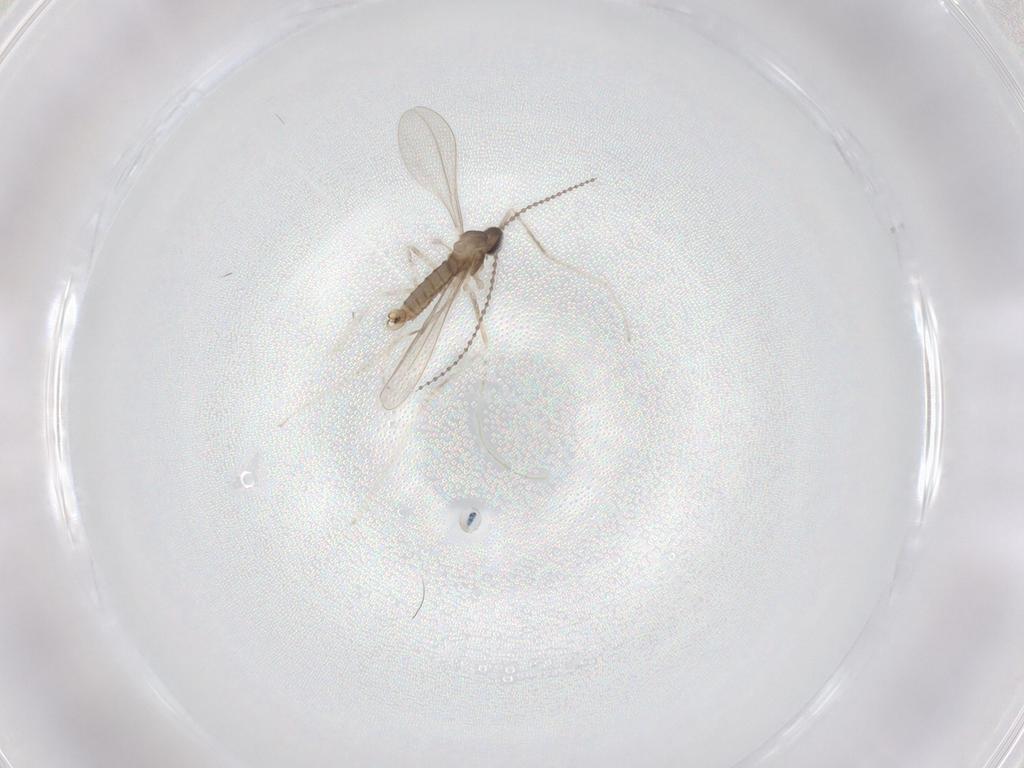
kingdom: Animalia
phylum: Arthropoda
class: Insecta
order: Diptera
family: Cecidomyiidae
